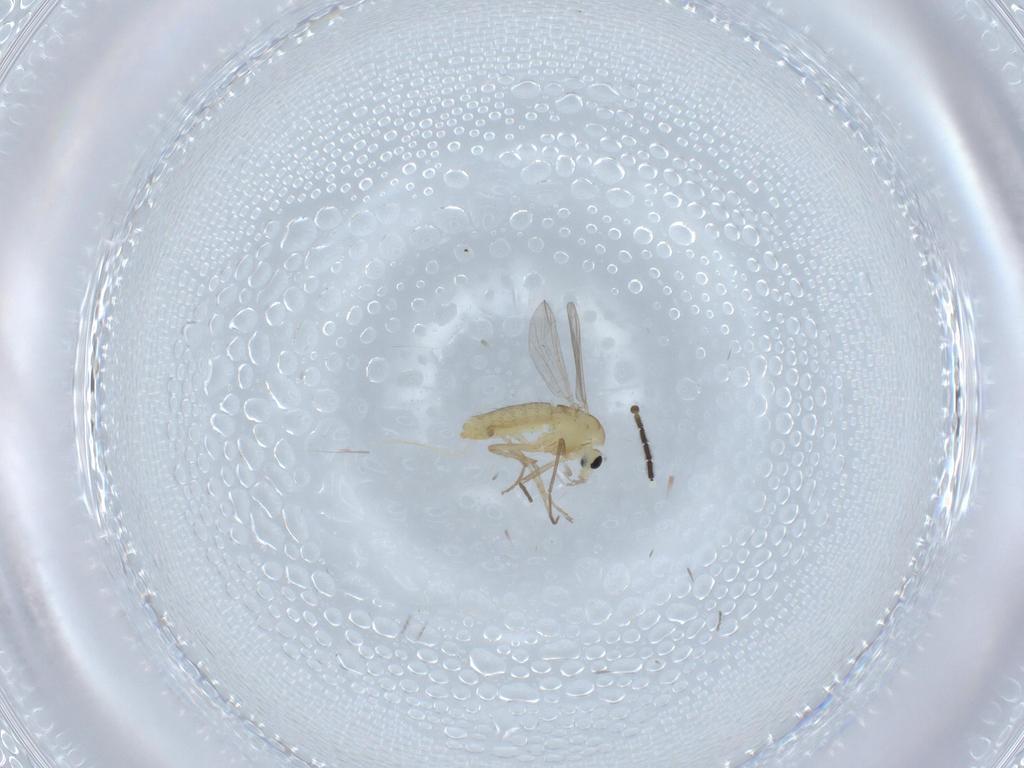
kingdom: Animalia
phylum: Arthropoda
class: Insecta
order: Diptera
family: Chironomidae
